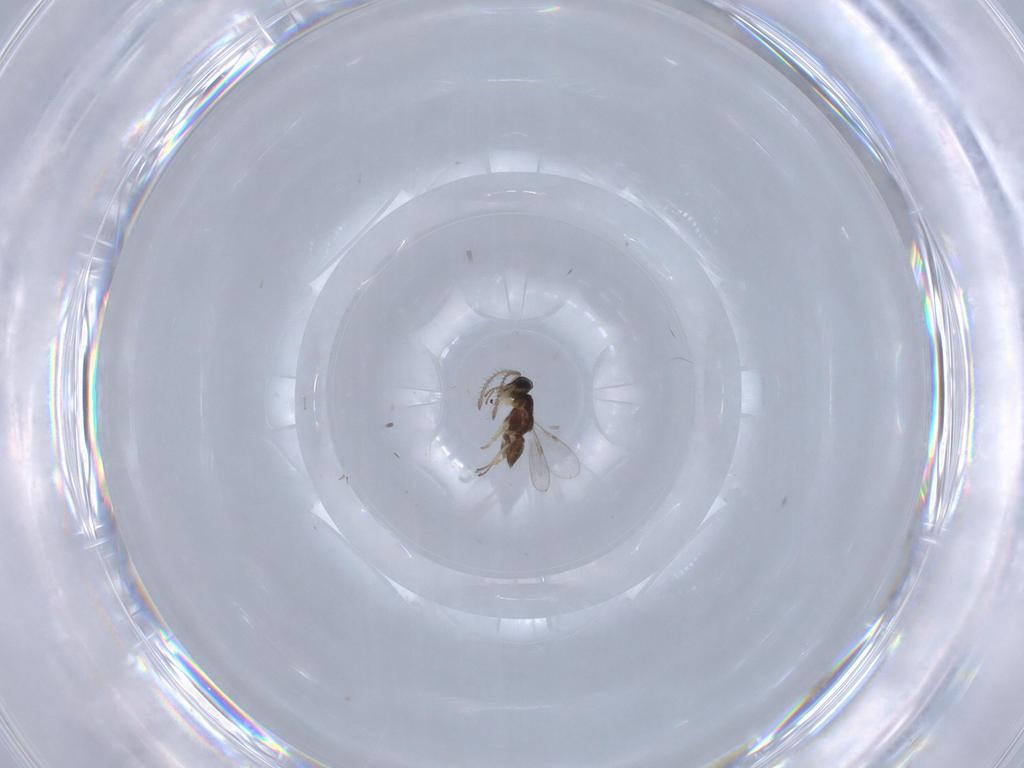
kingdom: Animalia
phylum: Arthropoda
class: Insecta
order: Hymenoptera
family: Encyrtidae
